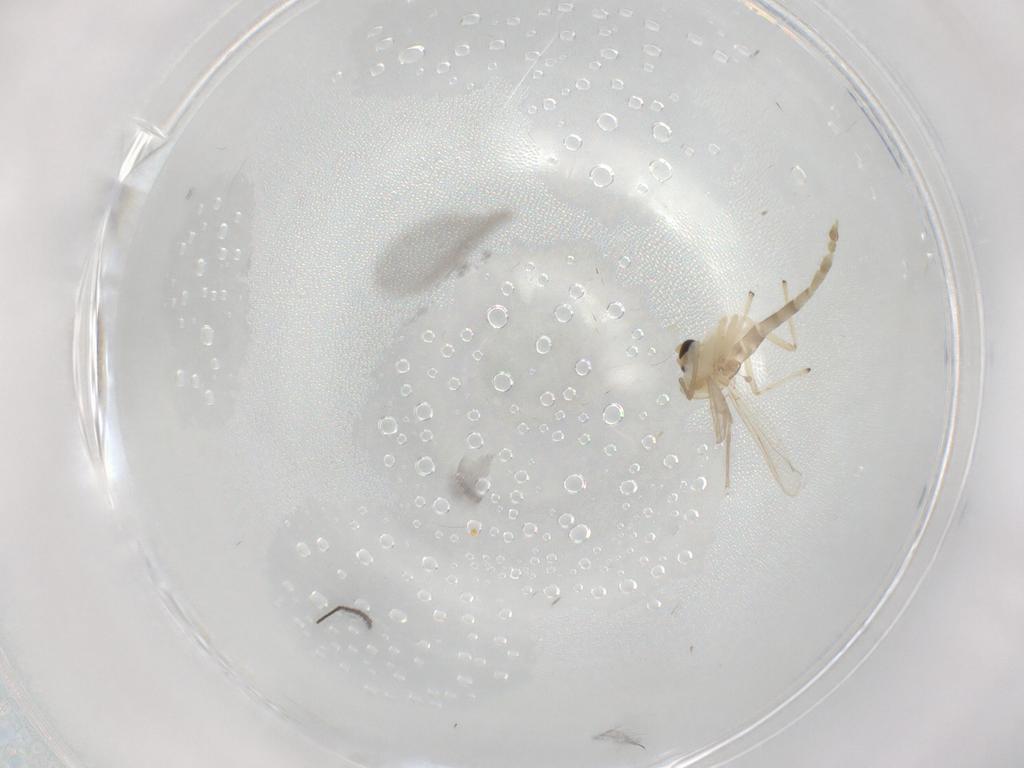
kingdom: Animalia
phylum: Arthropoda
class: Insecta
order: Diptera
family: Chironomidae
